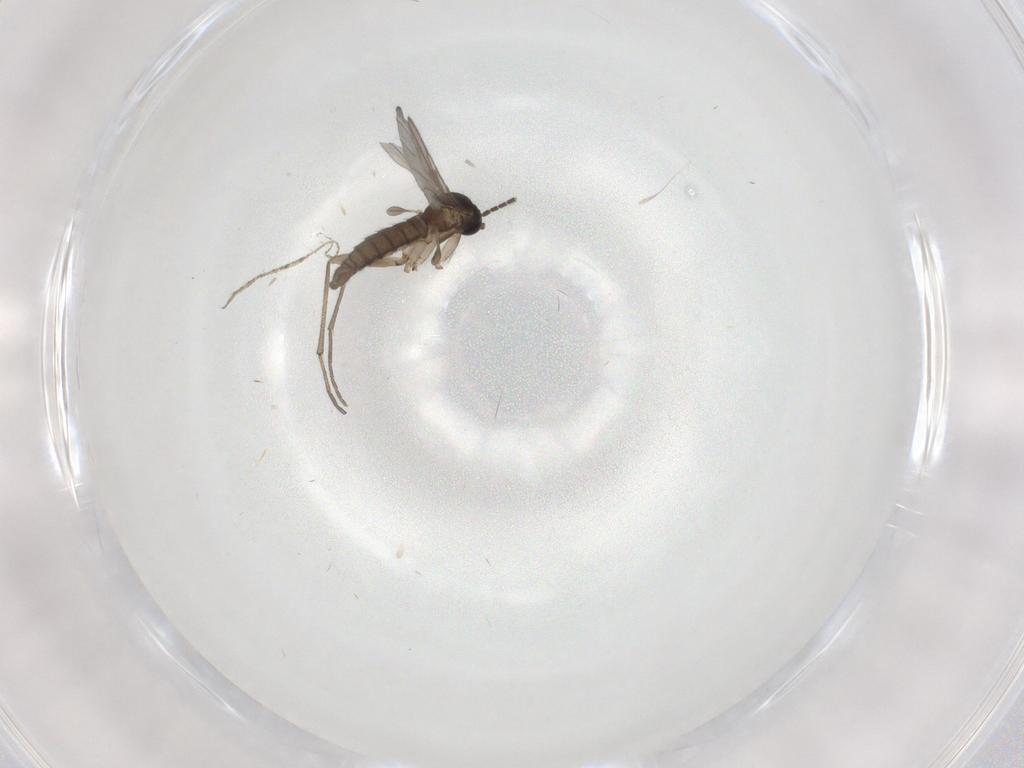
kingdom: Animalia
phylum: Arthropoda
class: Insecta
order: Diptera
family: Sciaridae
